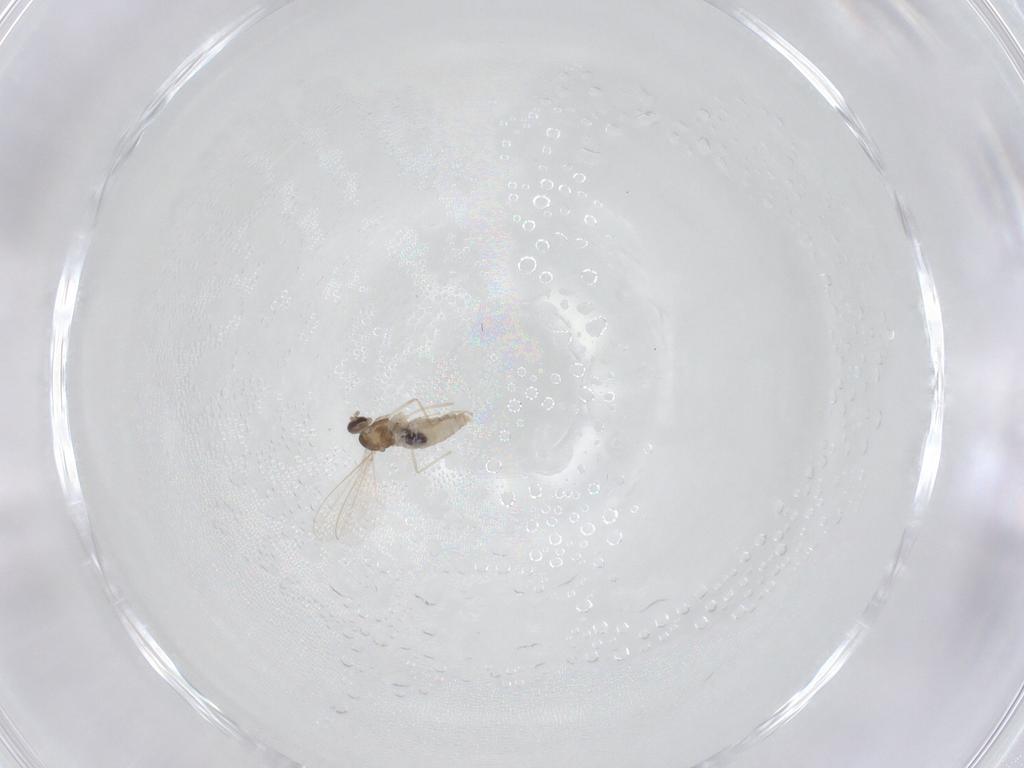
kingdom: Animalia
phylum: Arthropoda
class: Insecta
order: Diptera
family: Cecidomyiidae
